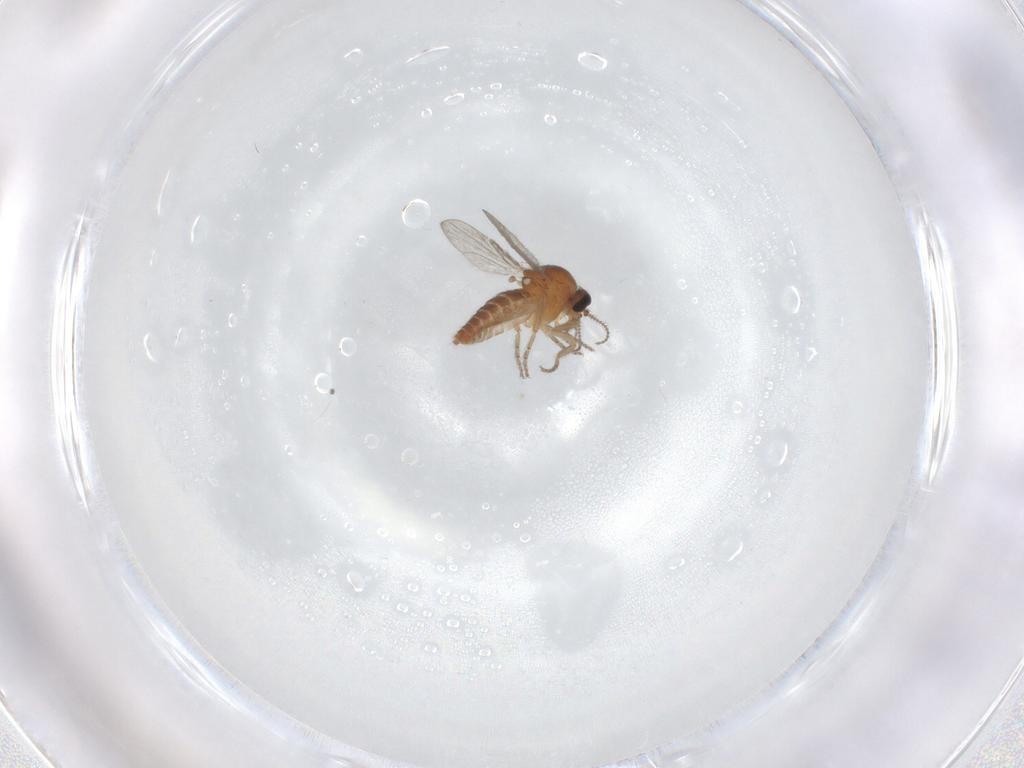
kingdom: Animalia
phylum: Arthropoda
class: Insecta
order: Diptera
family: Ceratopogonidae
